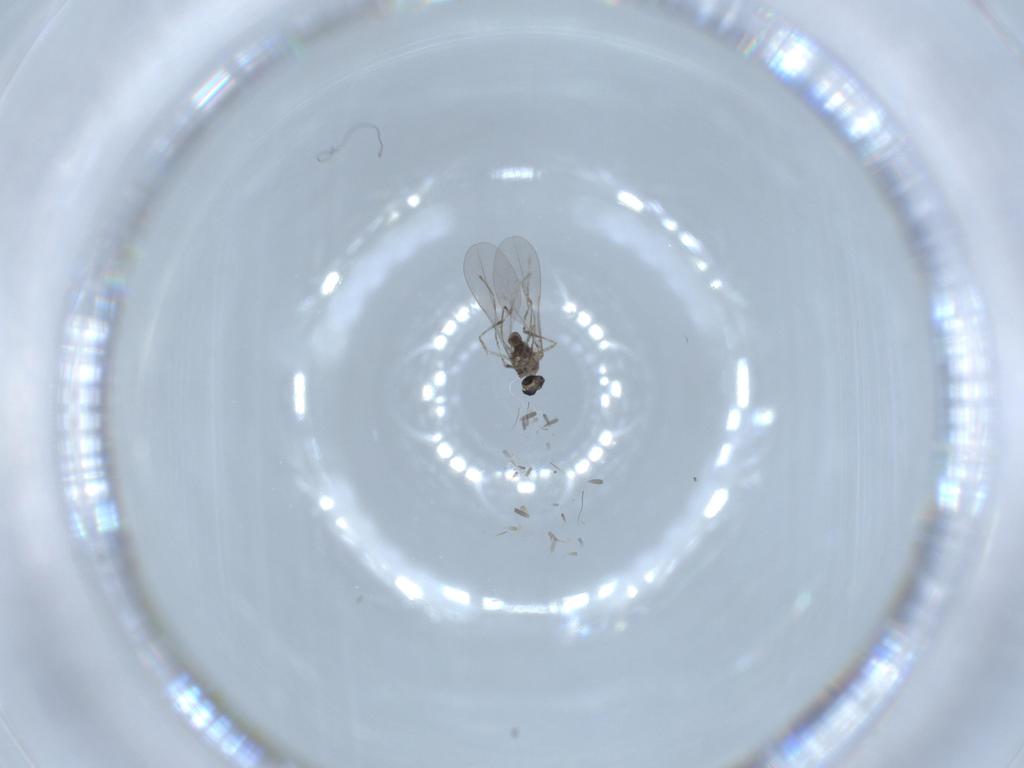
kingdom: Animalia
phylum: Arthropoda
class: Insecta
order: Diptera
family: Cecidomyiidae
